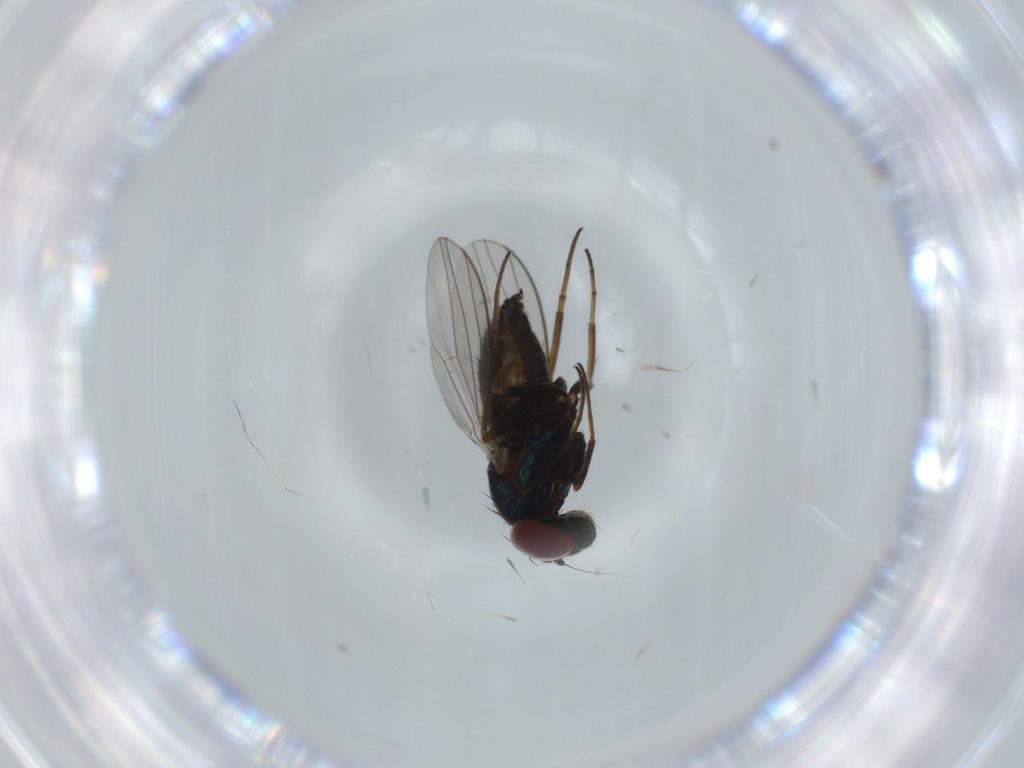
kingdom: Animalia
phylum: Arthropoda
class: Insecta
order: Diptera
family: Dolichopodidae
